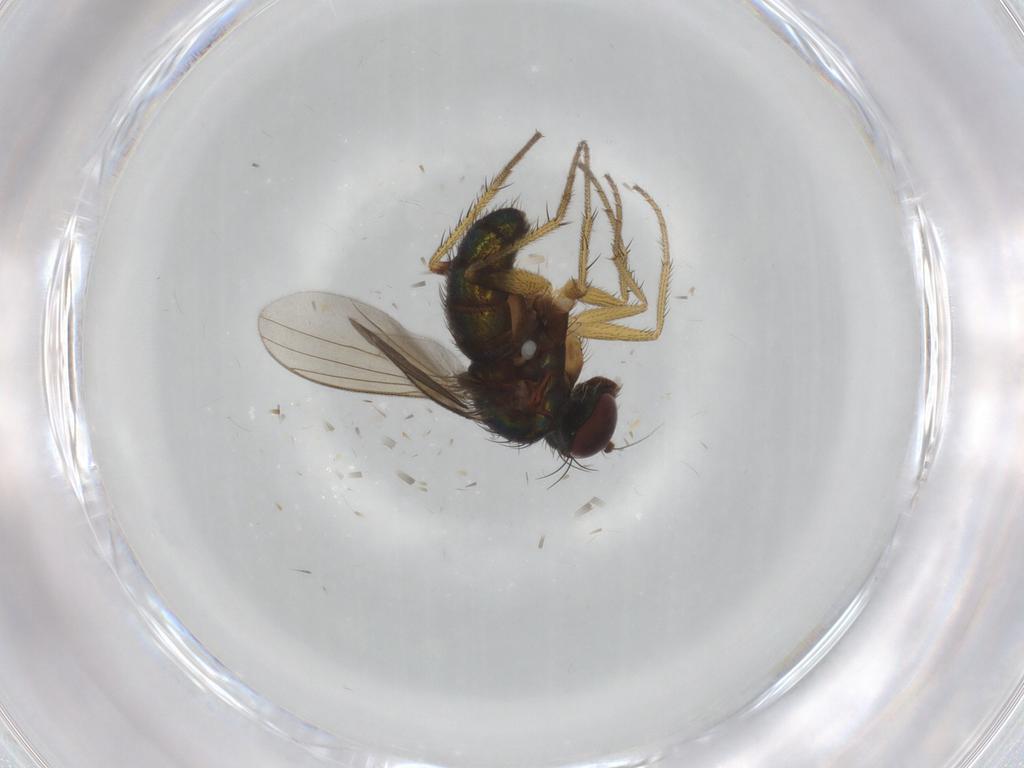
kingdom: Animalia
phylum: Arthropoda
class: Insecta
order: Diptera
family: Dolichopodidae
